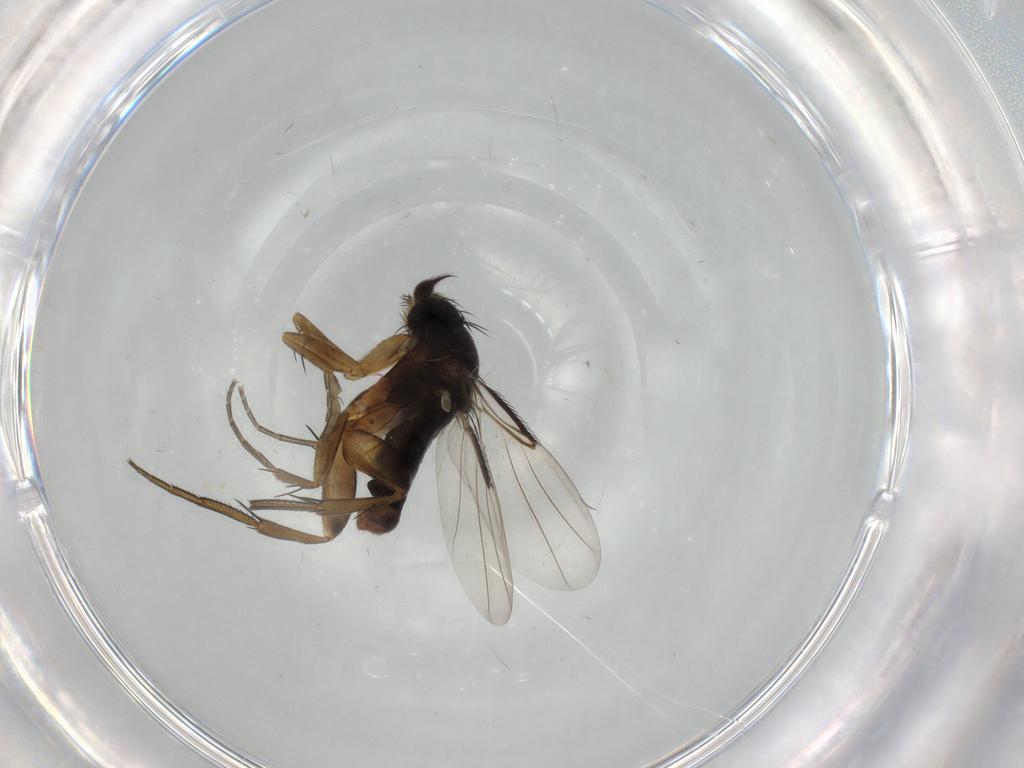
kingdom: Animalia
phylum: Arthropoda
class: Insecta
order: Diptera
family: Phoridae
